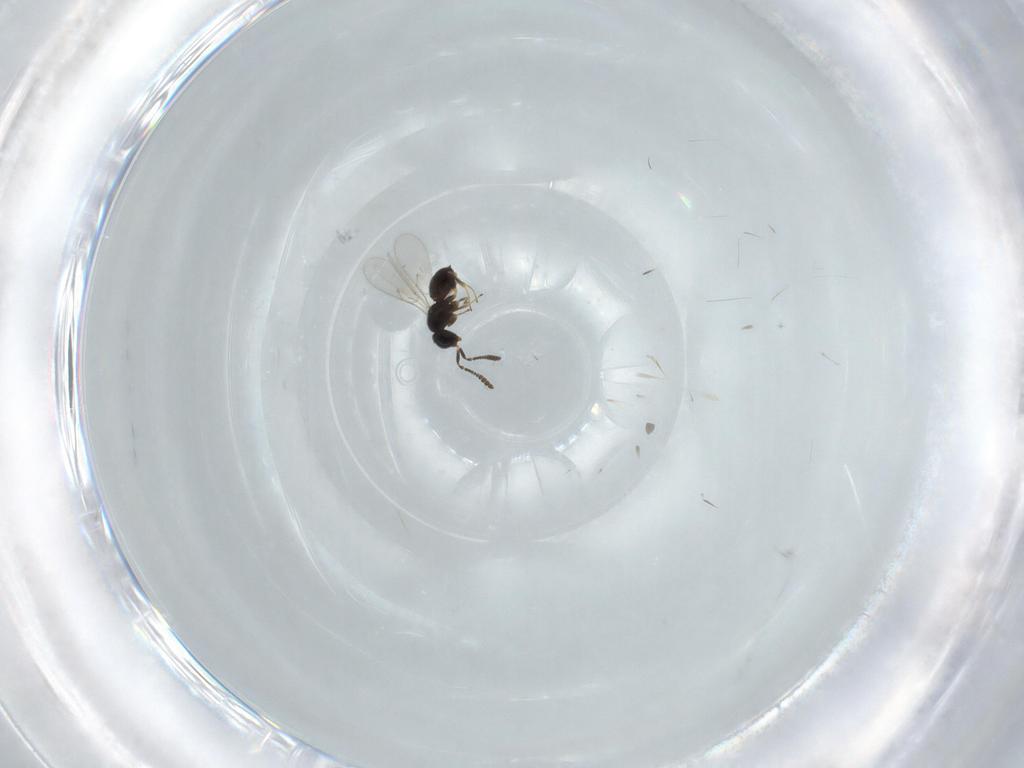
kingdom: Animalia
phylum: Arthropoda
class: Insecta
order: Hymenoptera
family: Scelionidae
